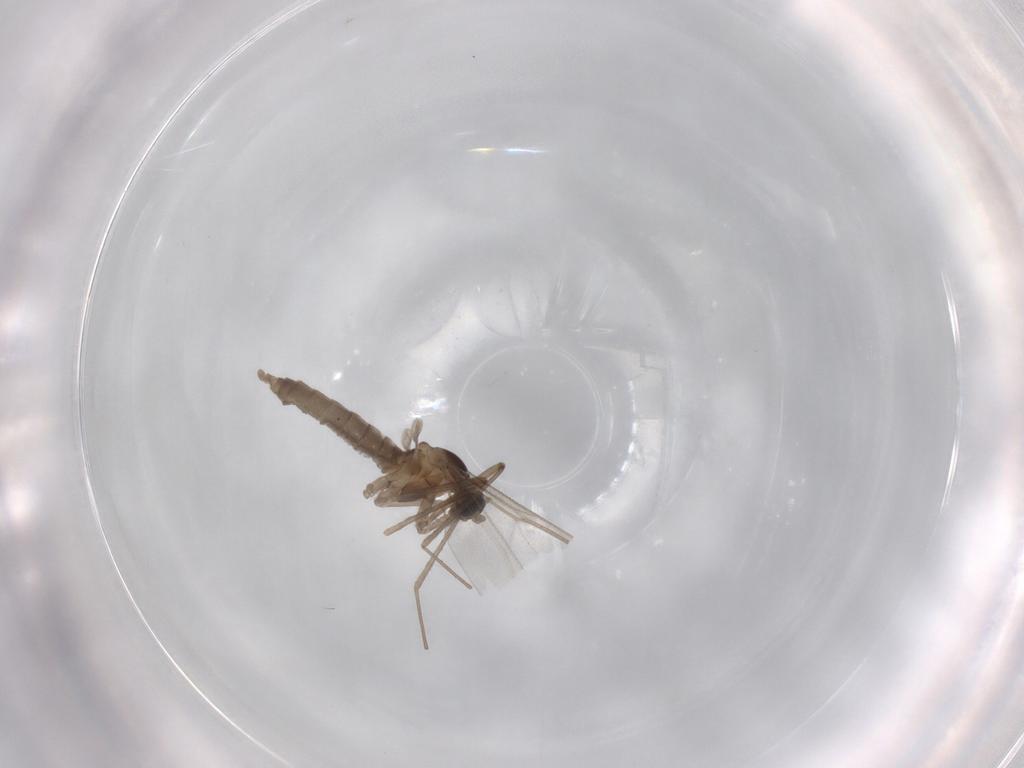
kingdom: Animalia
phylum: Arthropoda
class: Insecta
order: Diptera
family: Cecidomyiidae
